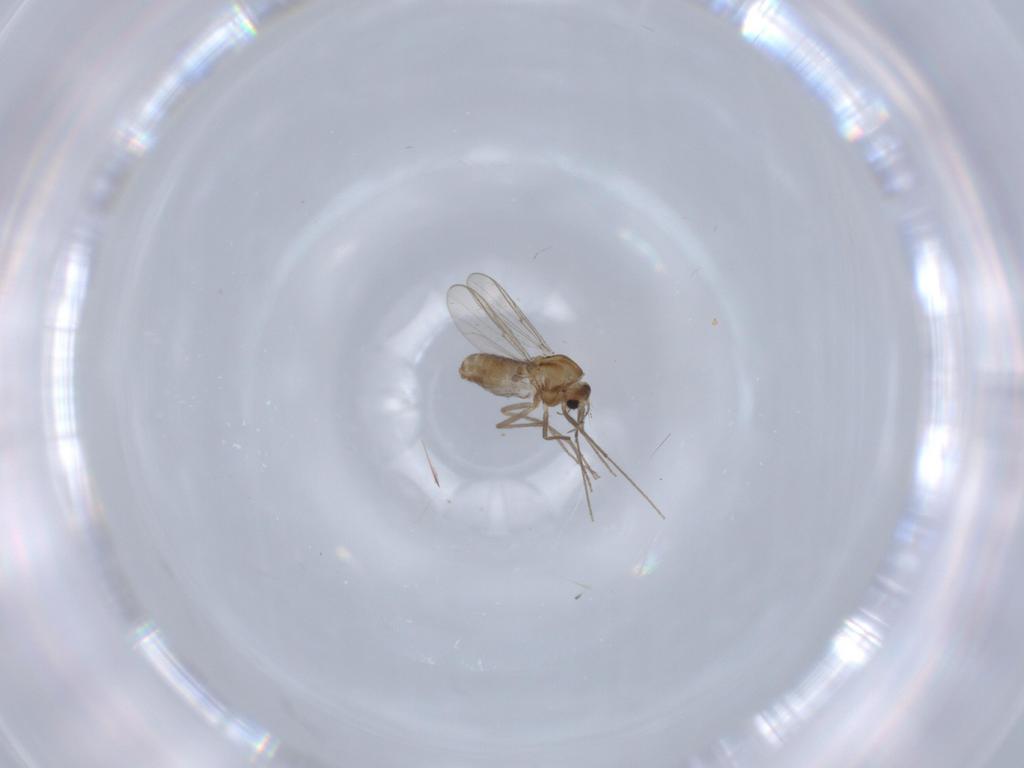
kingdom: Animalia
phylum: Arthropoda
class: Insecta
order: Diptera
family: Chironomidae
